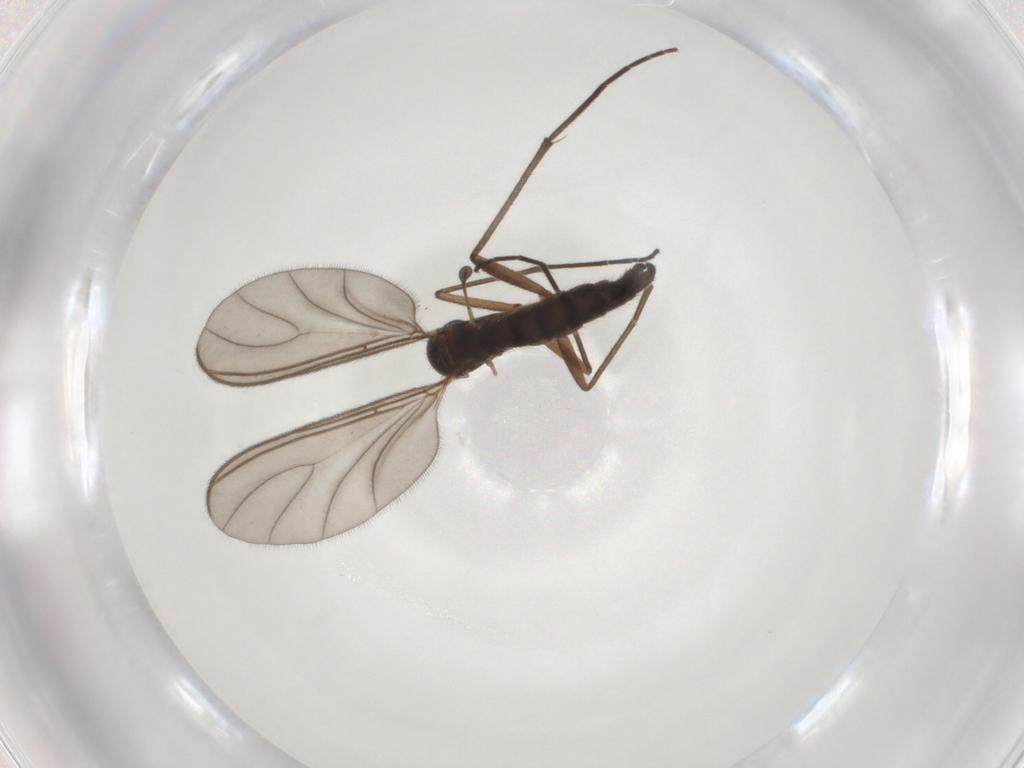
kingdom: Animalia
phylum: Arthropoda
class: Insecta
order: Diptera
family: Sciaridae
